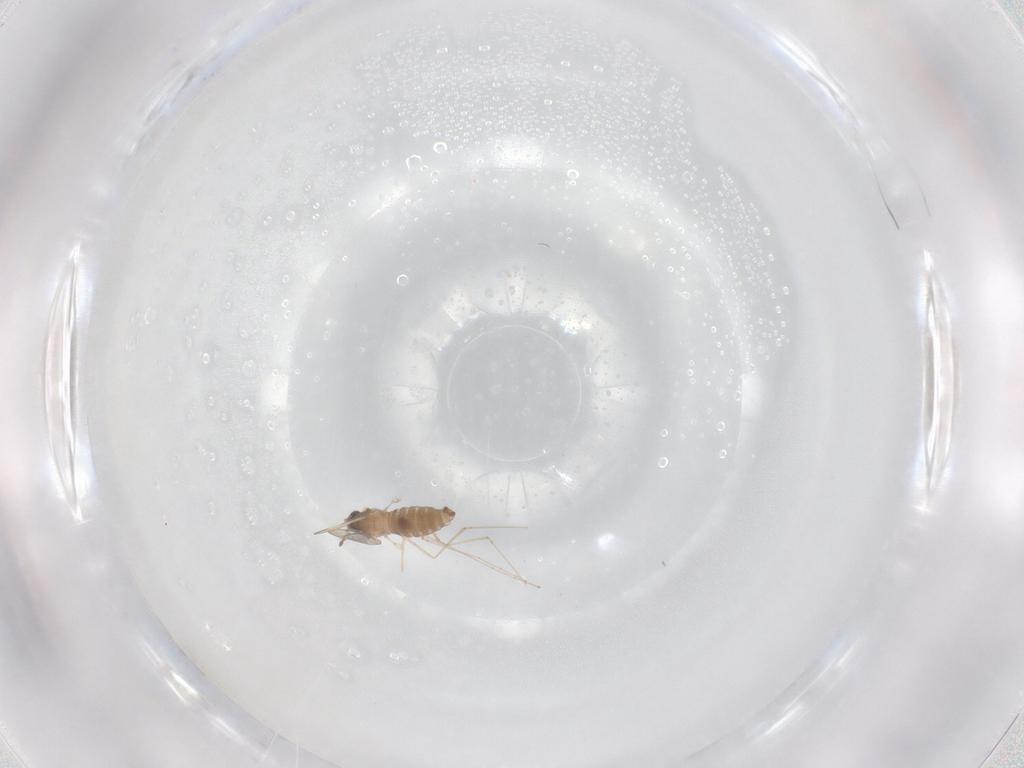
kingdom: Animalia
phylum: Arthropoda
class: Insecta
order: Diptera
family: Cecidomyiidae
